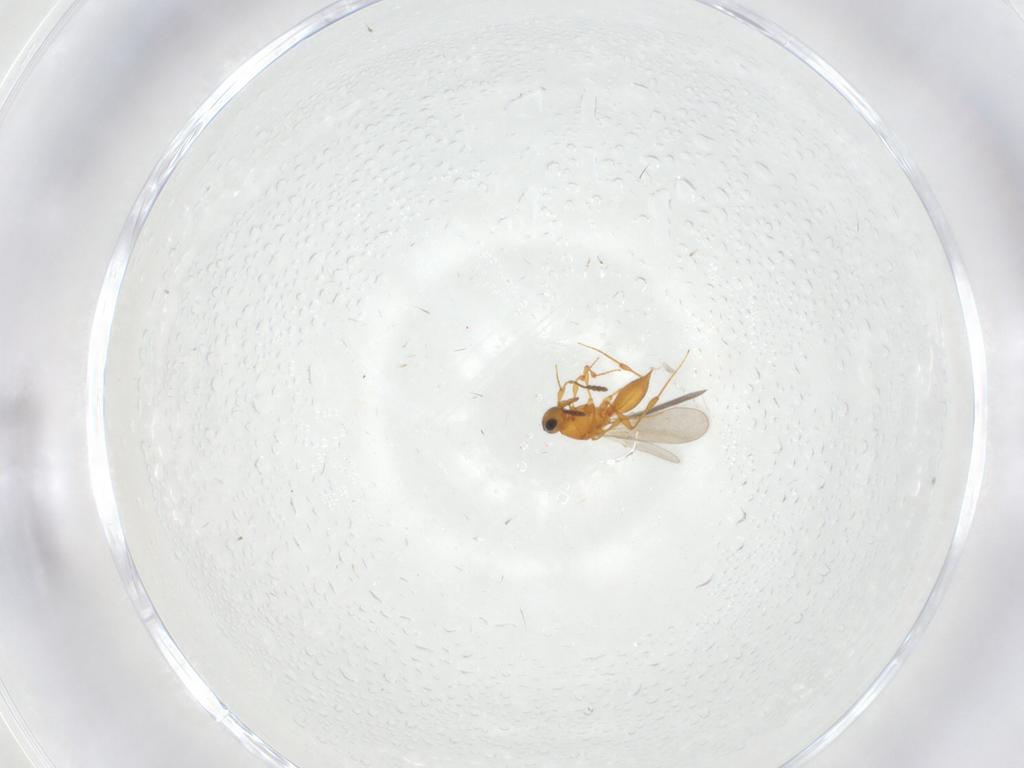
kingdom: Animalia
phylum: Arthropoda
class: Insecta
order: Hymenoptera
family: Platygastridae
